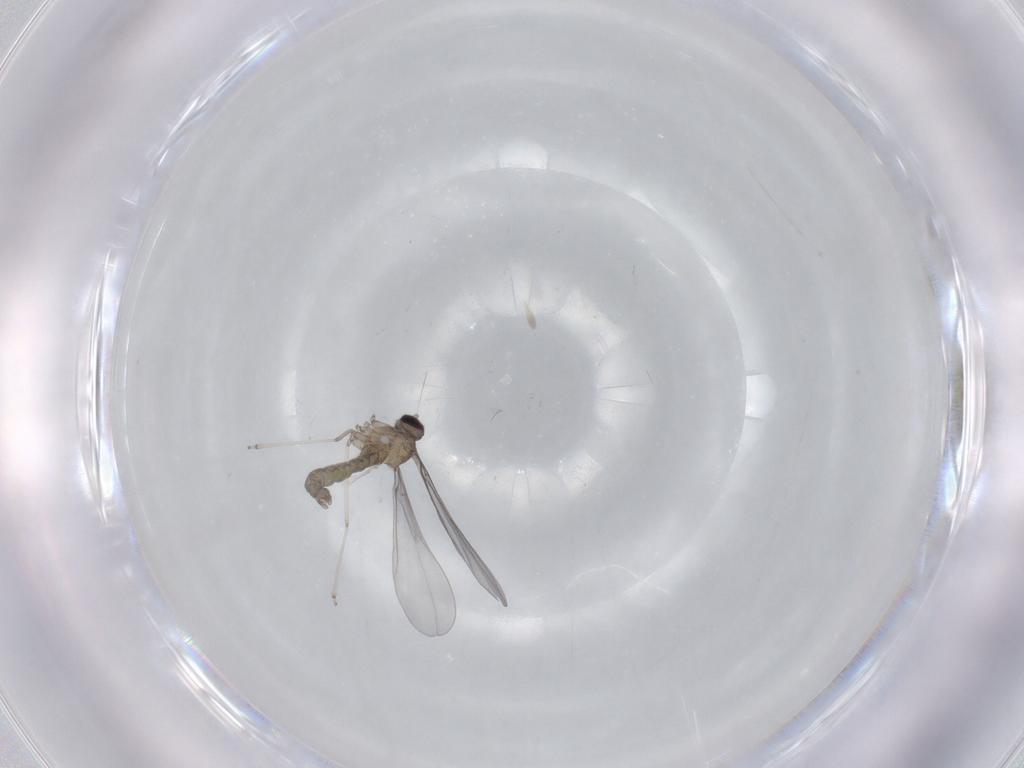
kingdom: Animalia
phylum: Arthropoda
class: Insecta
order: Diptera
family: Cecidomyiidae
